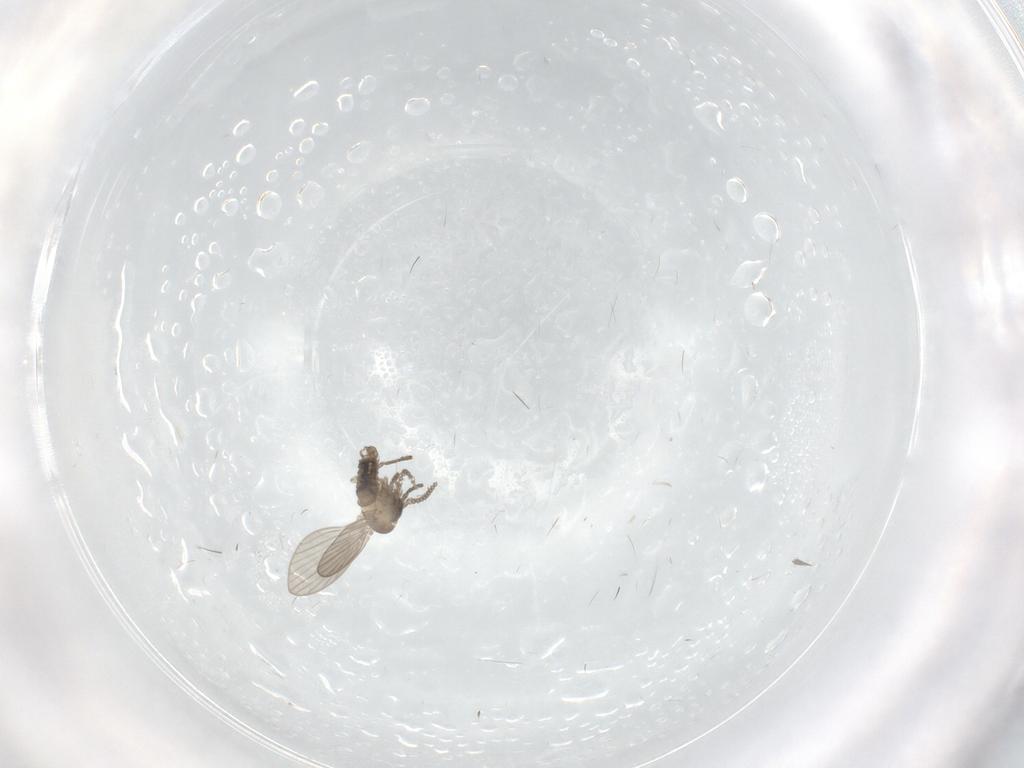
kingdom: Animalia
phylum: Arthropoda
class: Insecta
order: Diptera
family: Psychodidae
